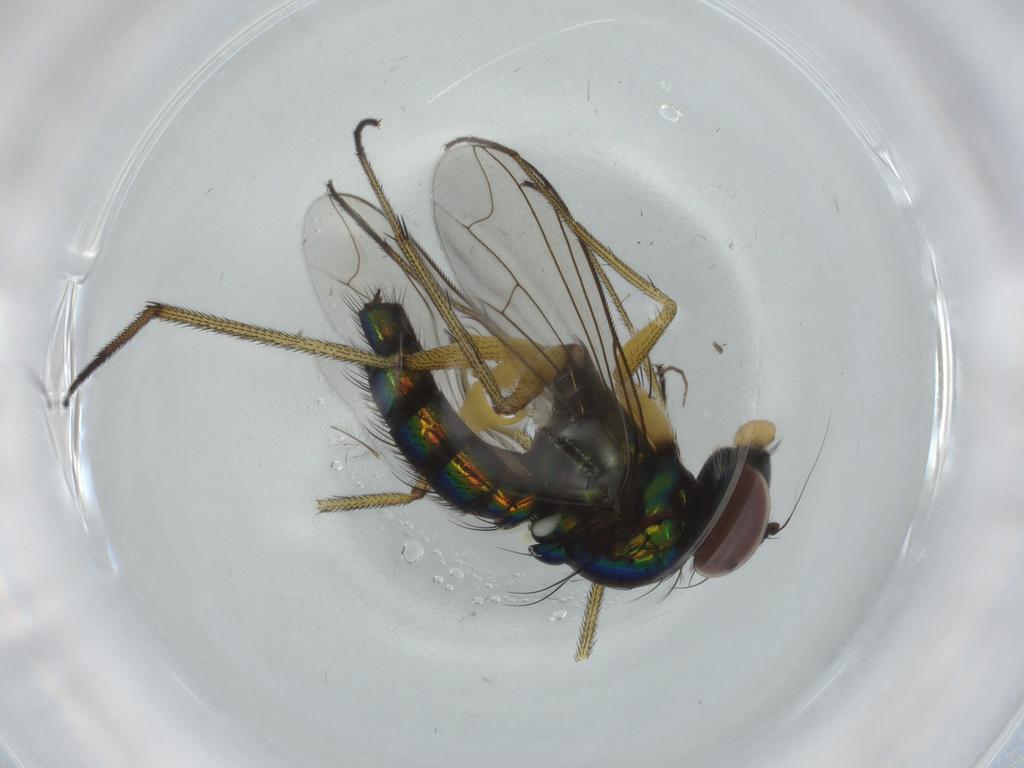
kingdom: Animalia
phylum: Arthropoda
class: Insecta
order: Diptera
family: Dolichopodidae
